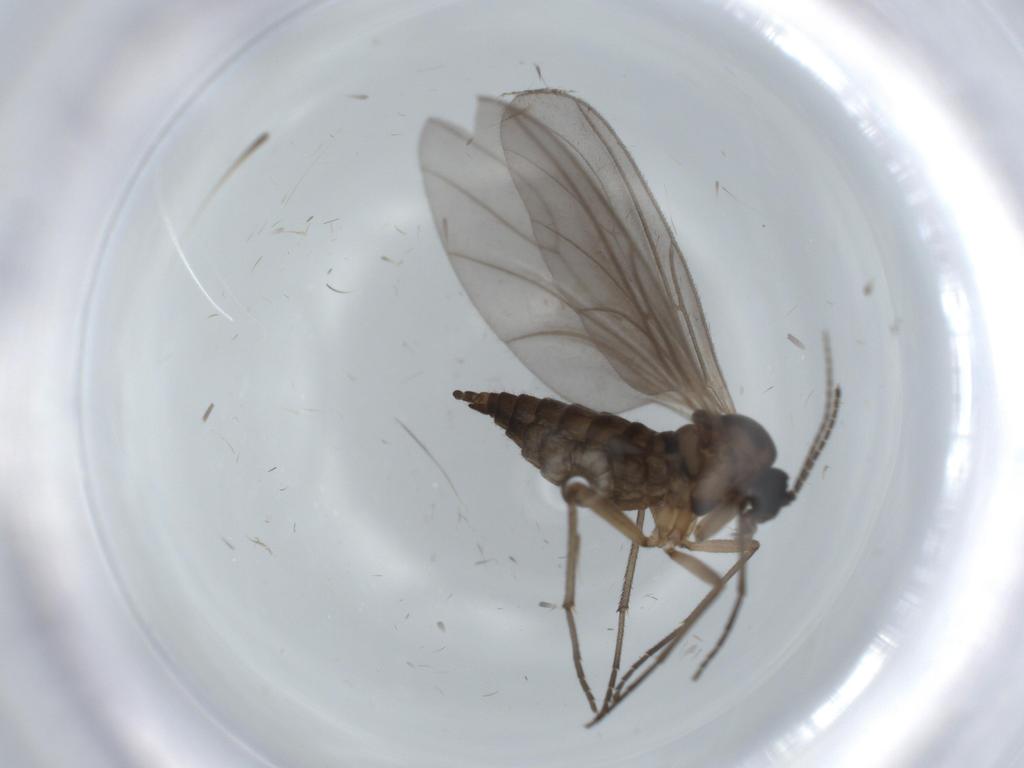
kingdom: Animalia
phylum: Arthropoda
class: Insecta
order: Diptera
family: Sciaridae
